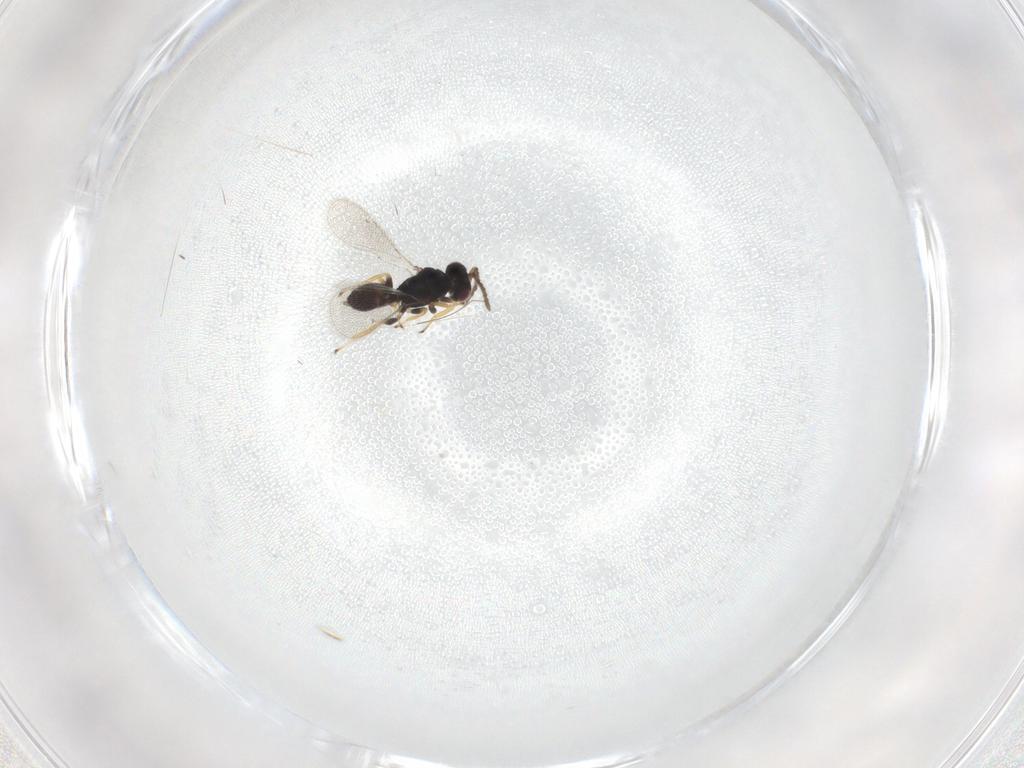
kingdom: Animalia
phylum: Arthropoda
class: Insecta
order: Hymenoptera
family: Eulophidae
